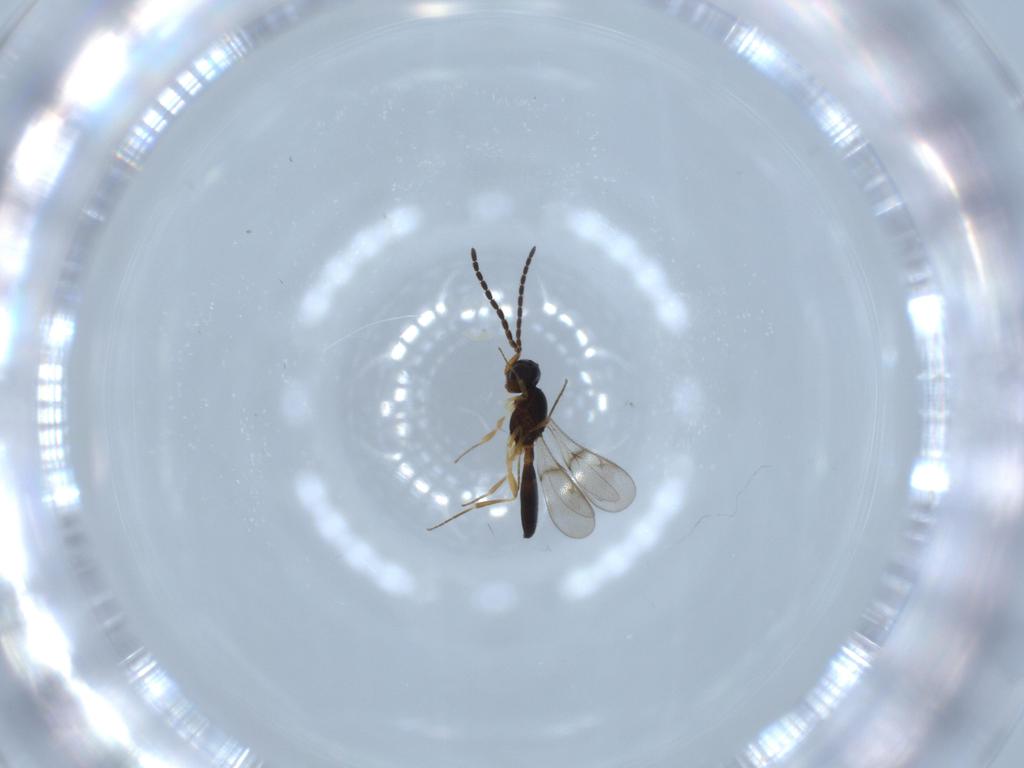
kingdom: Animalia
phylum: Arthropoda
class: Insecta
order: Hymenoptera
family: Scelionidae
